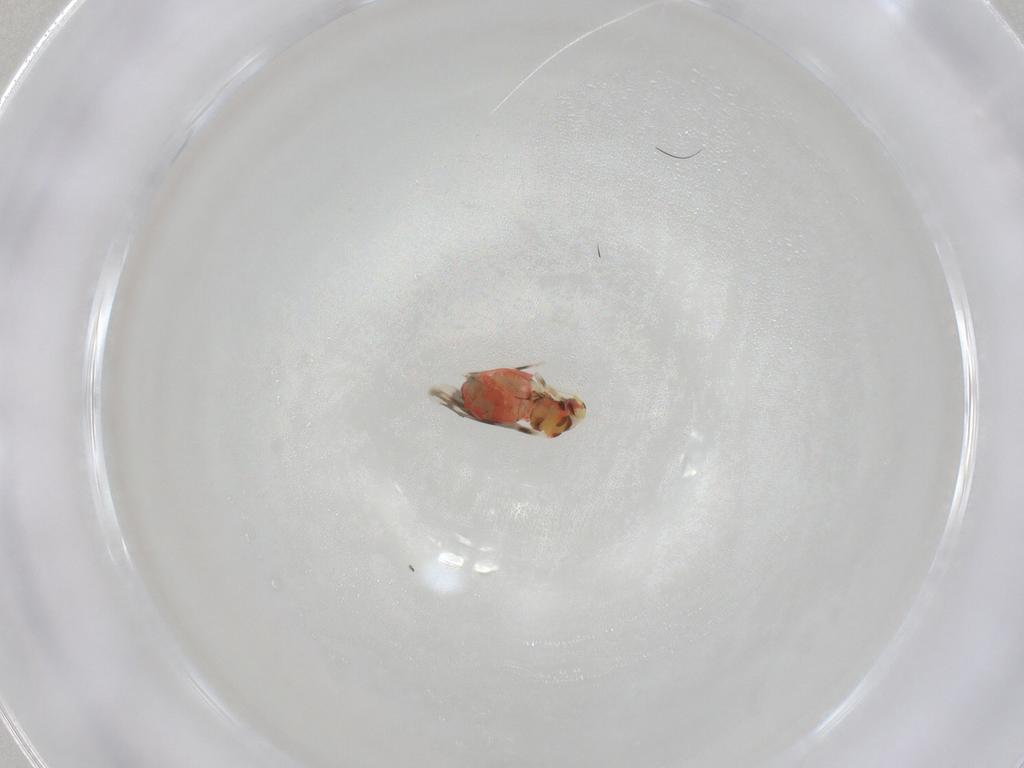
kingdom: Animalia
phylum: Arthropoda
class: Insecta
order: Hemiptera
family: Aleyrodidae
